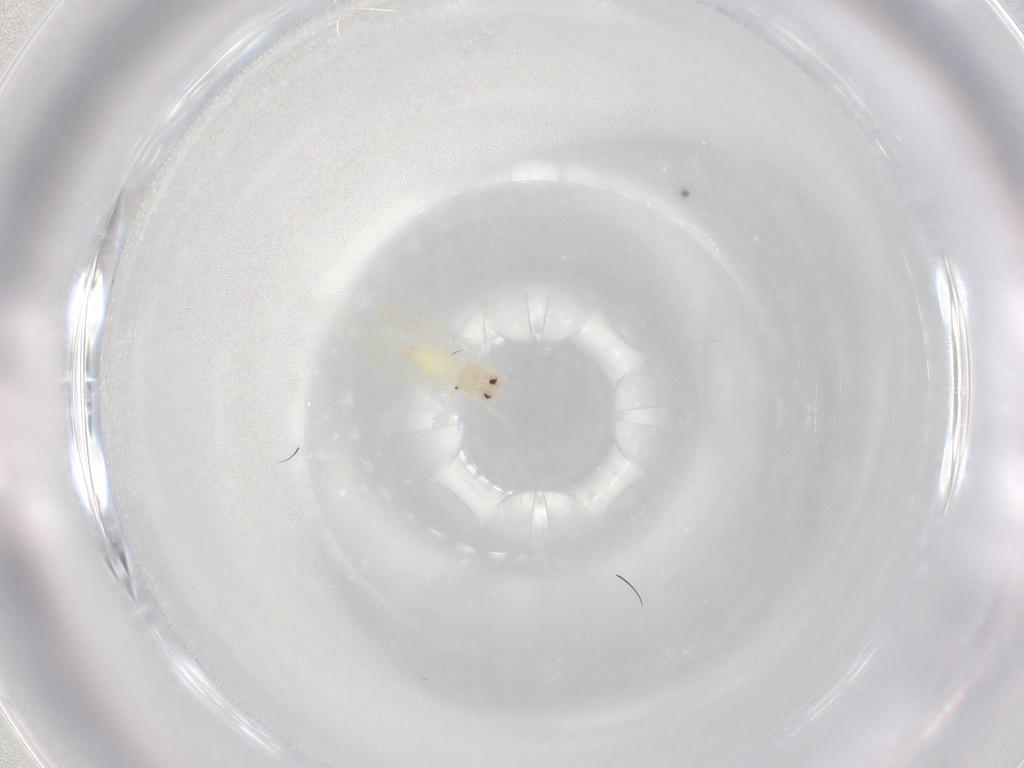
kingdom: Animalia
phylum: Arthropoda
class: Insecta
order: Hemiptera
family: Aleyrodidae
